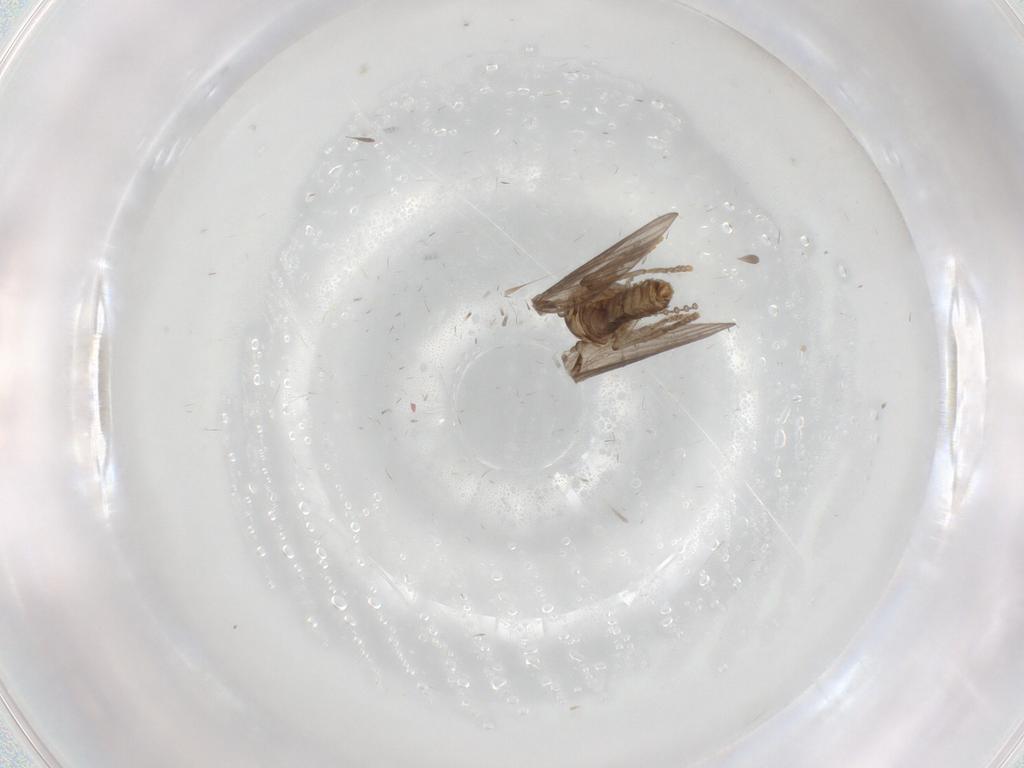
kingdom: Animalia
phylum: Arthropoda
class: Insecta
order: Diptera
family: Psychodidae
